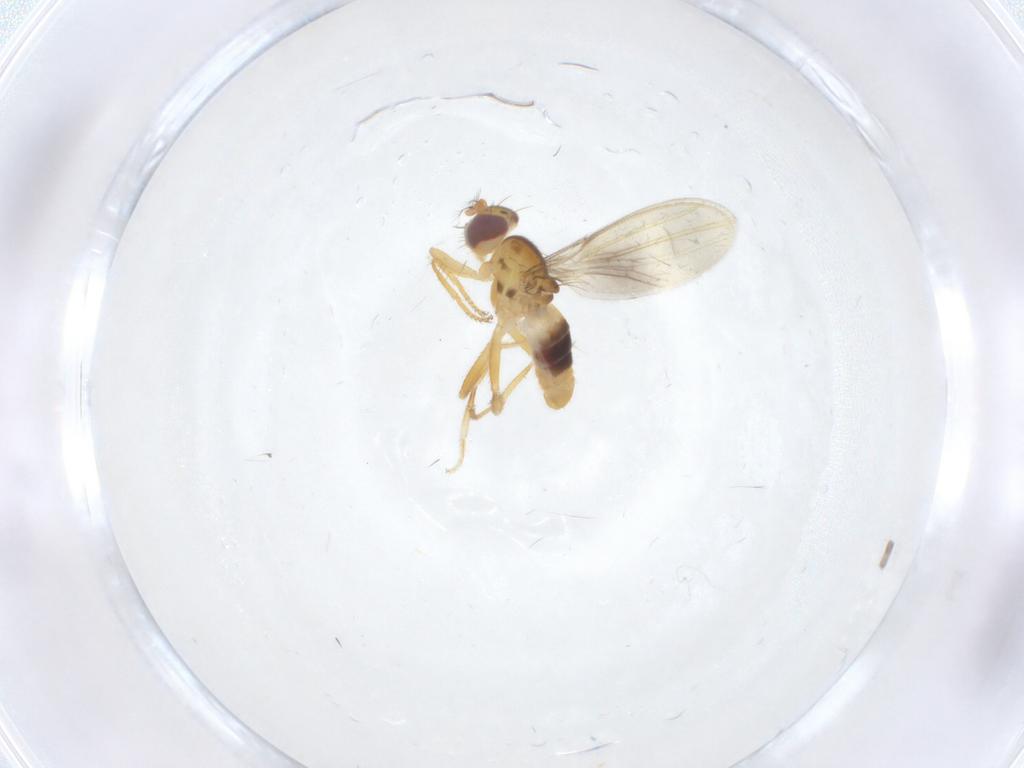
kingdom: Animalia
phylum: Arthropoda
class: Insecta
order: Diptera
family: Periscelididae
